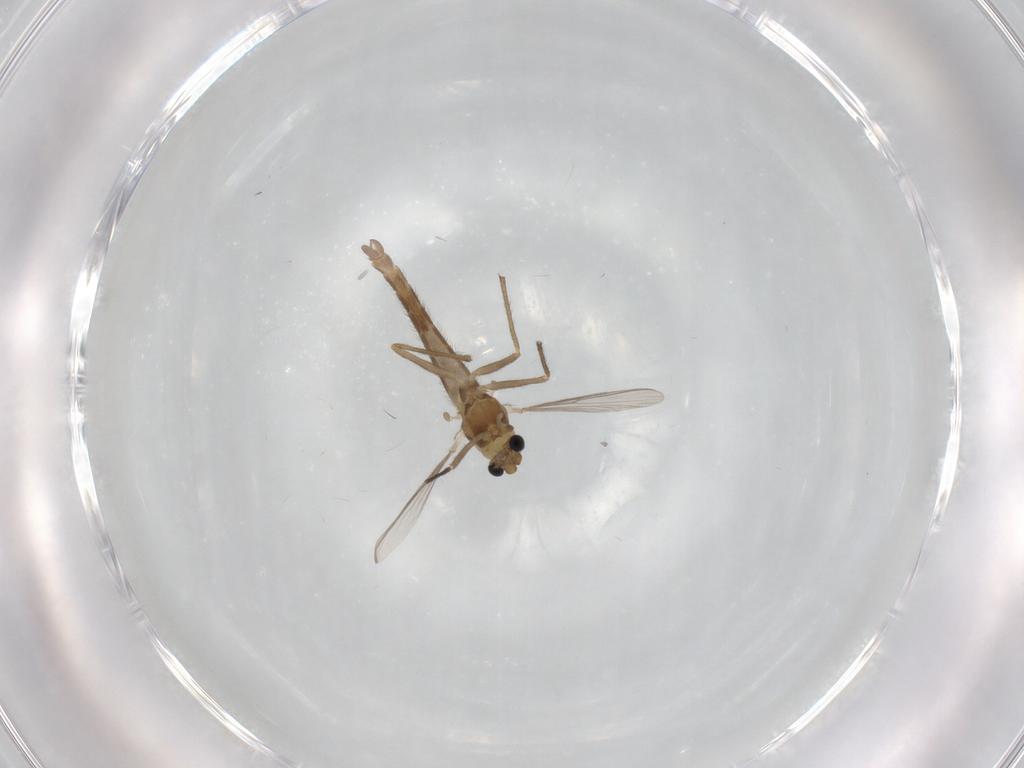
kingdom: Animalia
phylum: Arthropoda
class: Insecta
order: Diptera
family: Chironomidae
